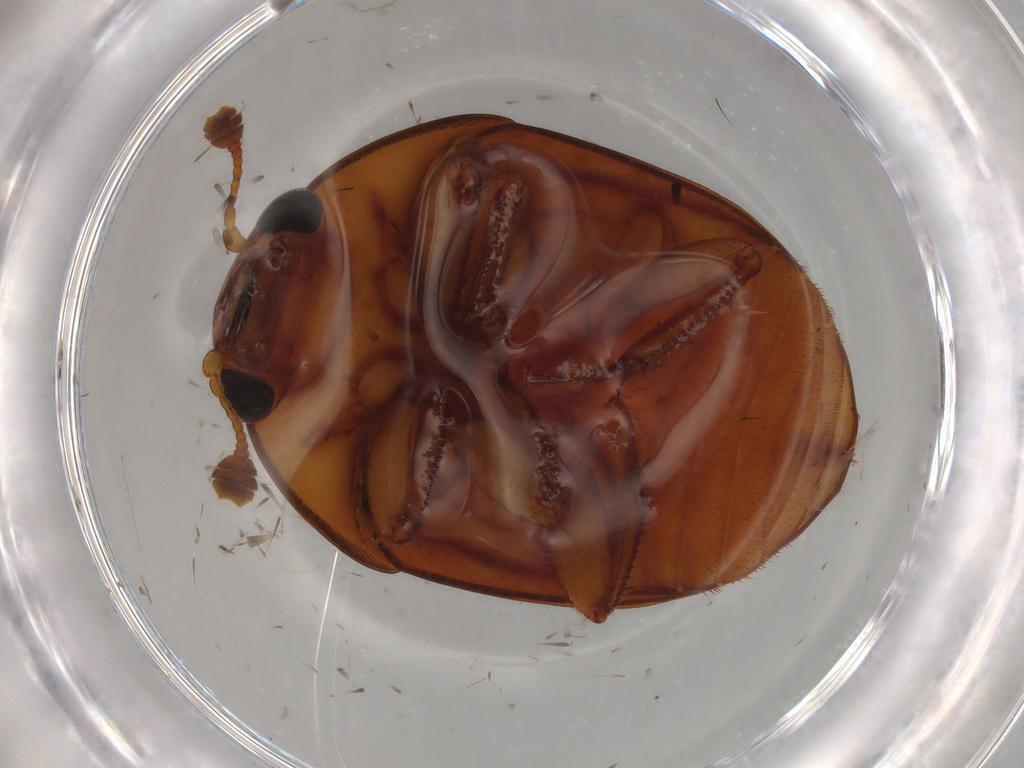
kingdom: Animalia
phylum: Arthropoda
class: Insecta
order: Coleoptera
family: Nitidulidae
